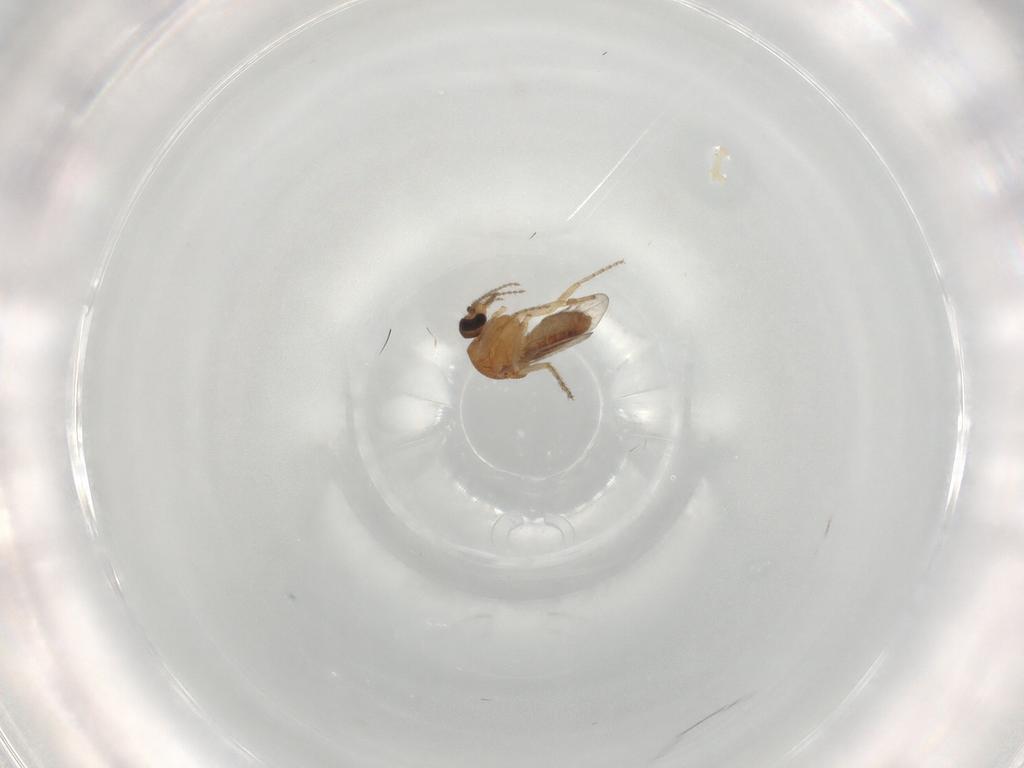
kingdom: Animalia
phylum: Arthropoda
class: Insecta
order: Diptera
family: Ceratopogonidae
